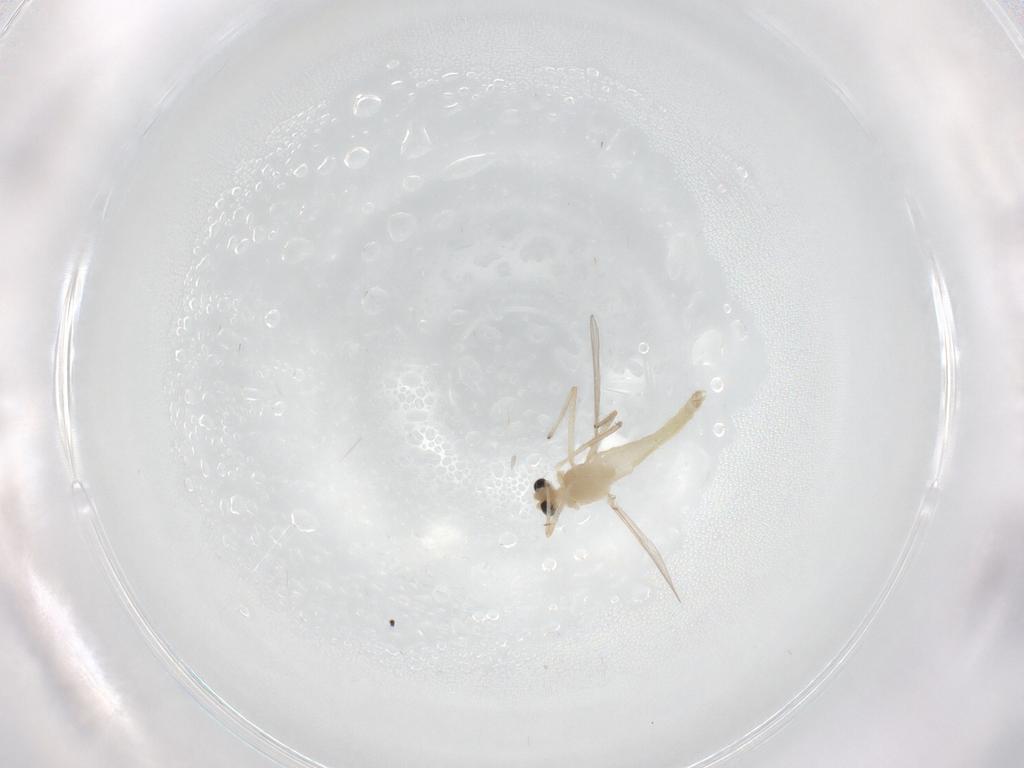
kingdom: Animalia
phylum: Arthropoda
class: Insecta
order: Diptera
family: Chironomidae
